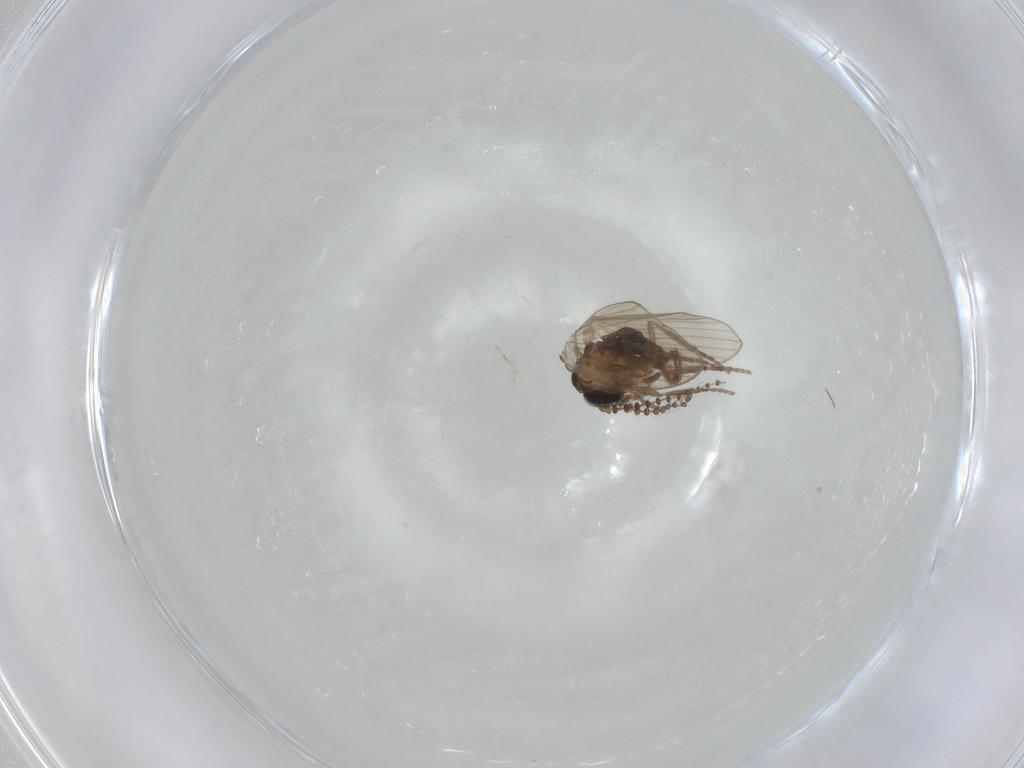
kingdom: Animalia
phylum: Arthropoda
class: Insecta
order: Diptera
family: Psychodidae
